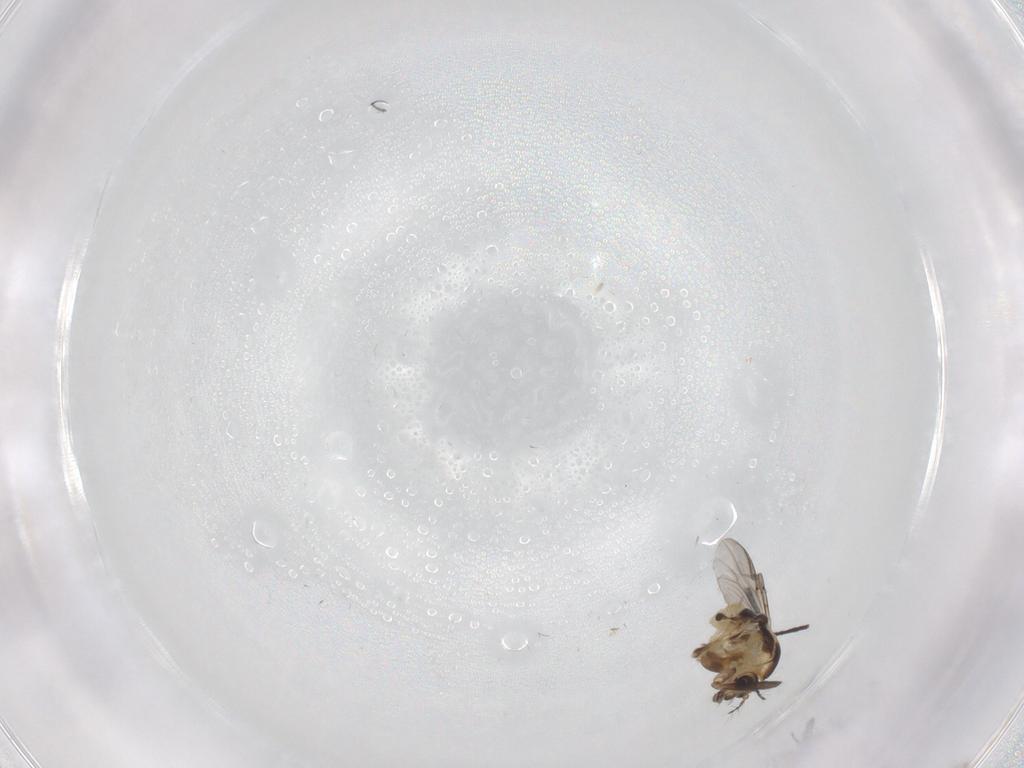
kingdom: Animalia
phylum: Arthropoda
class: Insecta
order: Diptera
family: Chironomidae
